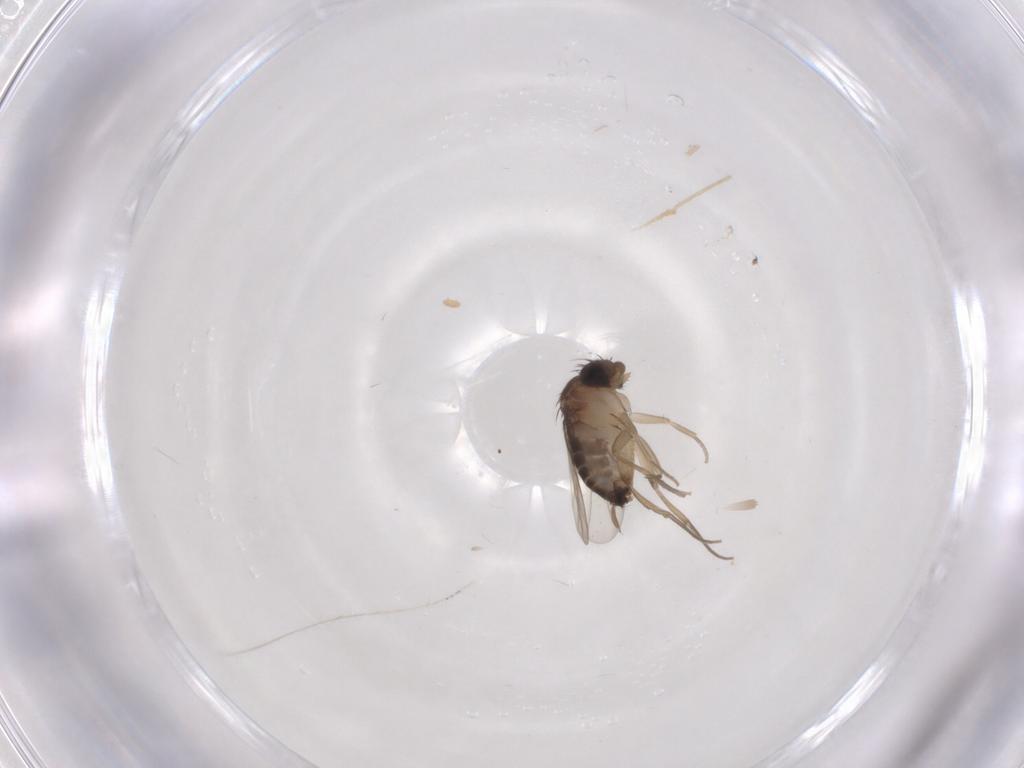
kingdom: Animalia
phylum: Arthropoda
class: Insecta
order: Diptera
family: Phoridae
